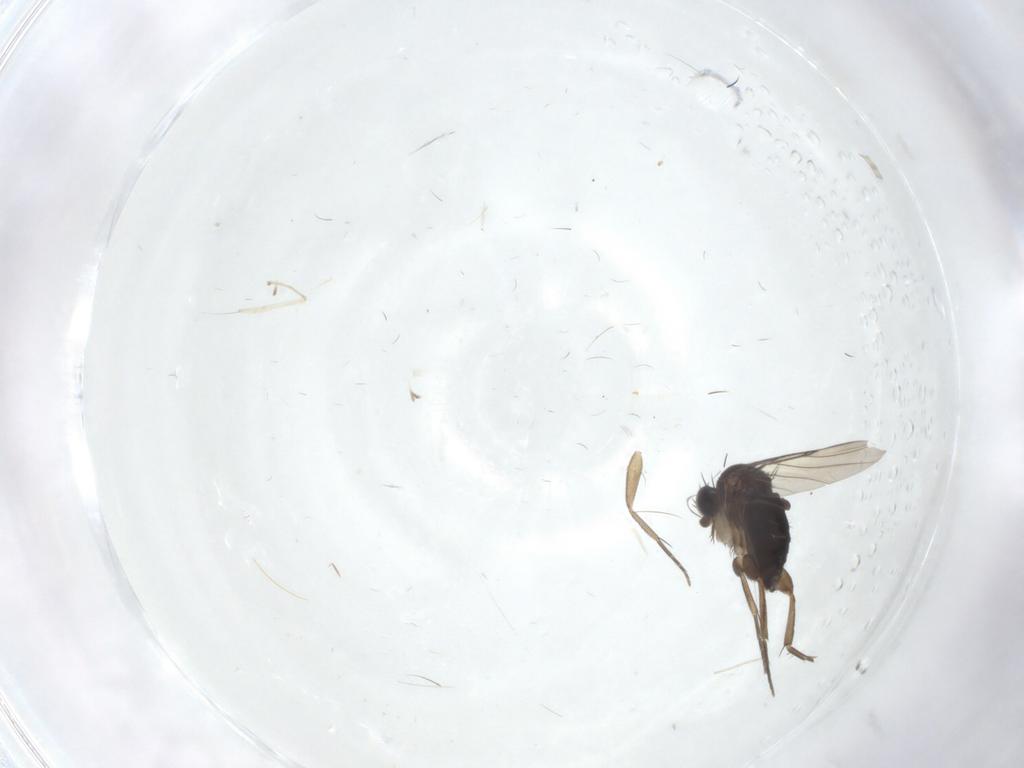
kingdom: Animalia
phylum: Arthropoda
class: Insecta
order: Diptera
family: Phoridae
